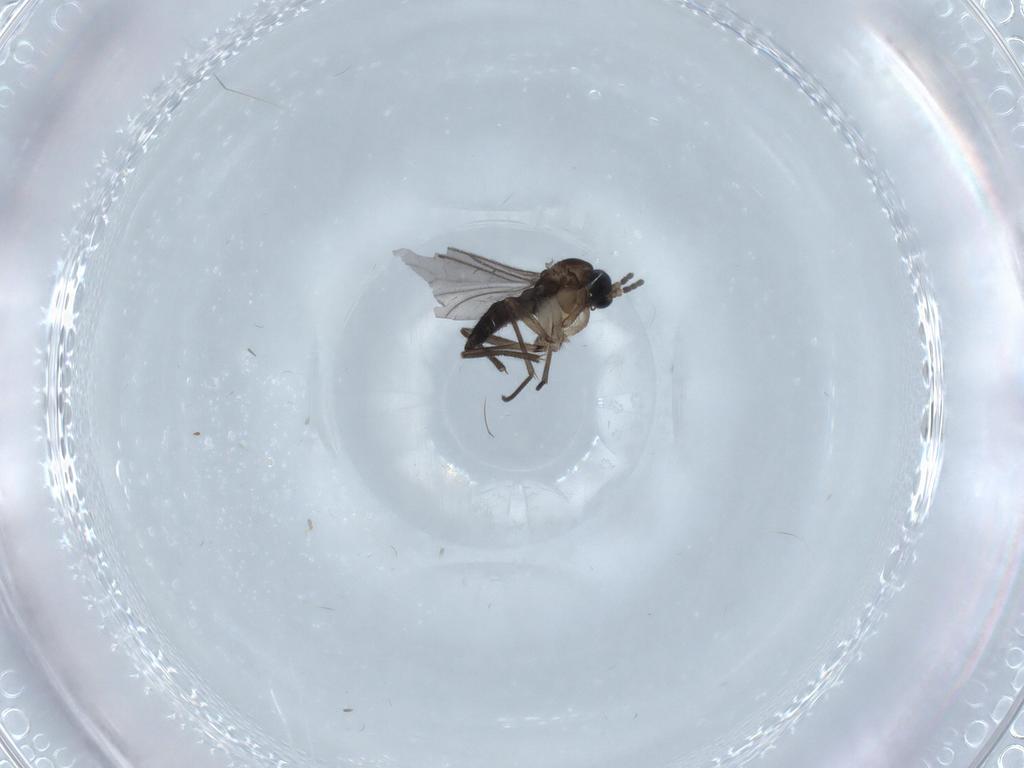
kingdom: Animalia
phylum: Arthropoda
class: Insecta
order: Diptera
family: Sciaridae
